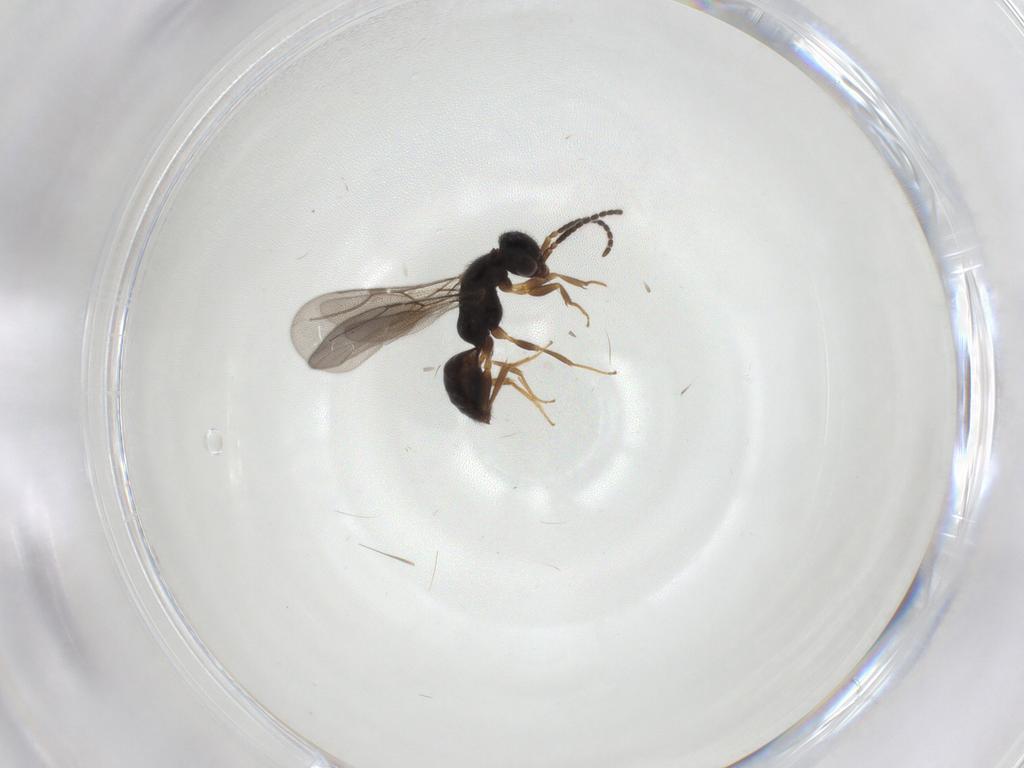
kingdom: Animalia
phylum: Arthropoda
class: Insecta
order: Hymenoptera
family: Bethylidae
